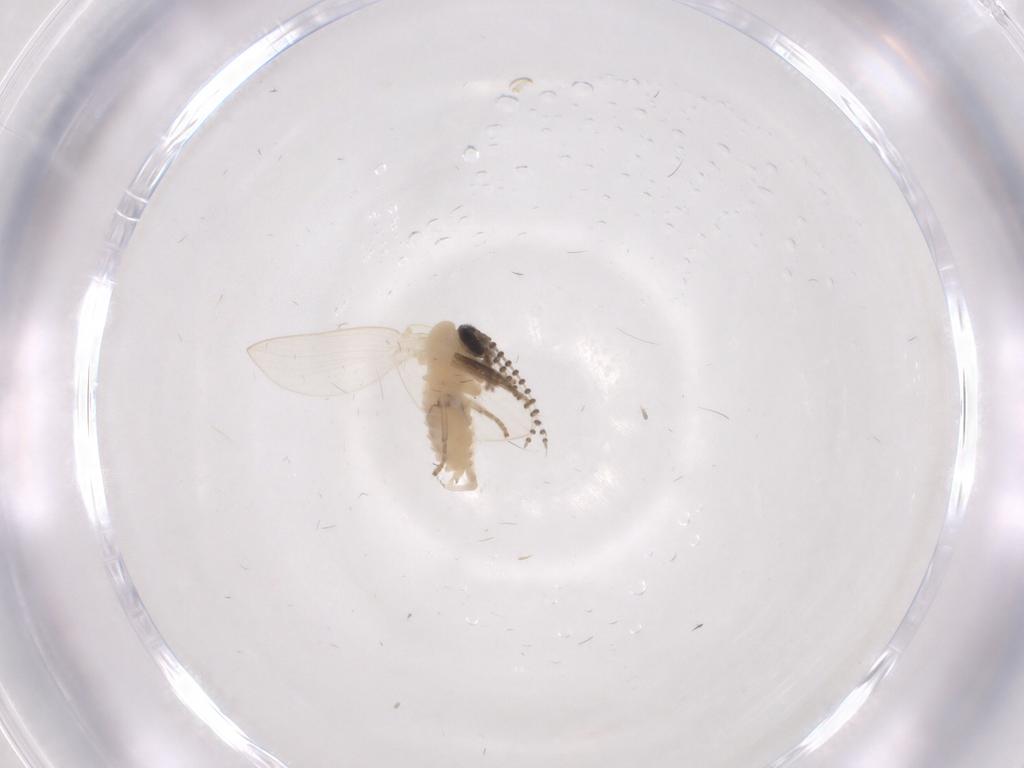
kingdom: Animalia
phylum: Arthropoda
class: Insecta
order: Diptera
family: Psychodidae
